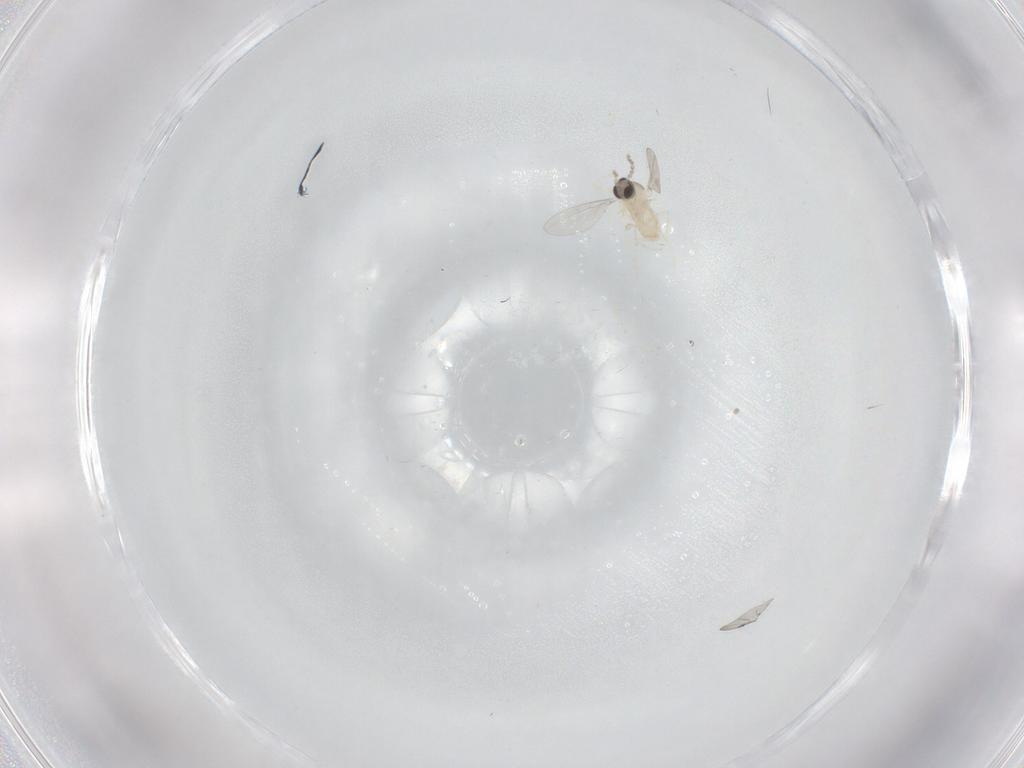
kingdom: Animalia
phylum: Arthropoda
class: Insecta
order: Diptera
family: Cecidomyiidae
